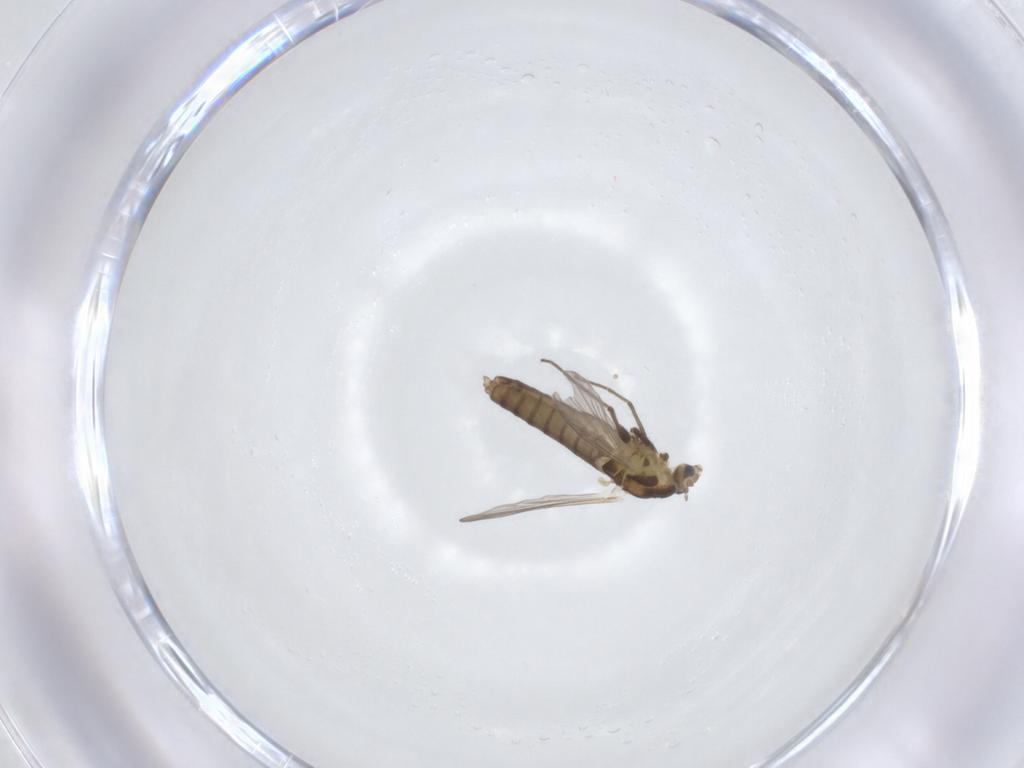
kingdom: Animalia
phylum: Arthropoda
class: Insecta
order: Diptera
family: Chironomidae
